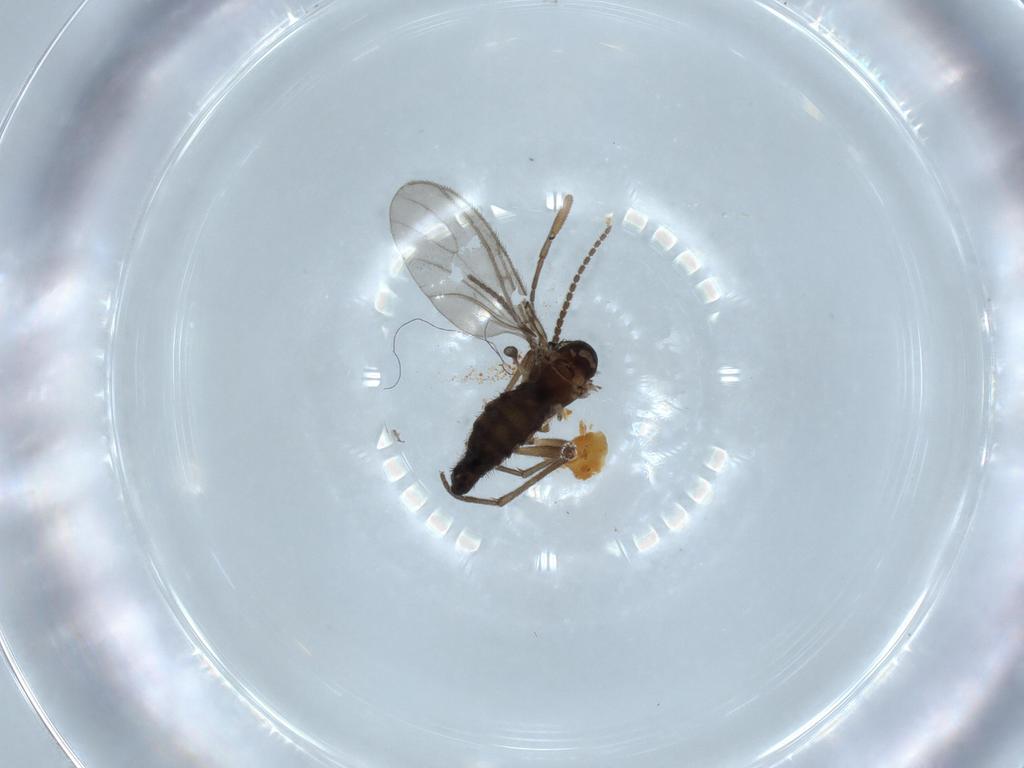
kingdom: Animalia
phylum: Arthropoda
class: Insecta
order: Diptera
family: Sciaridae
